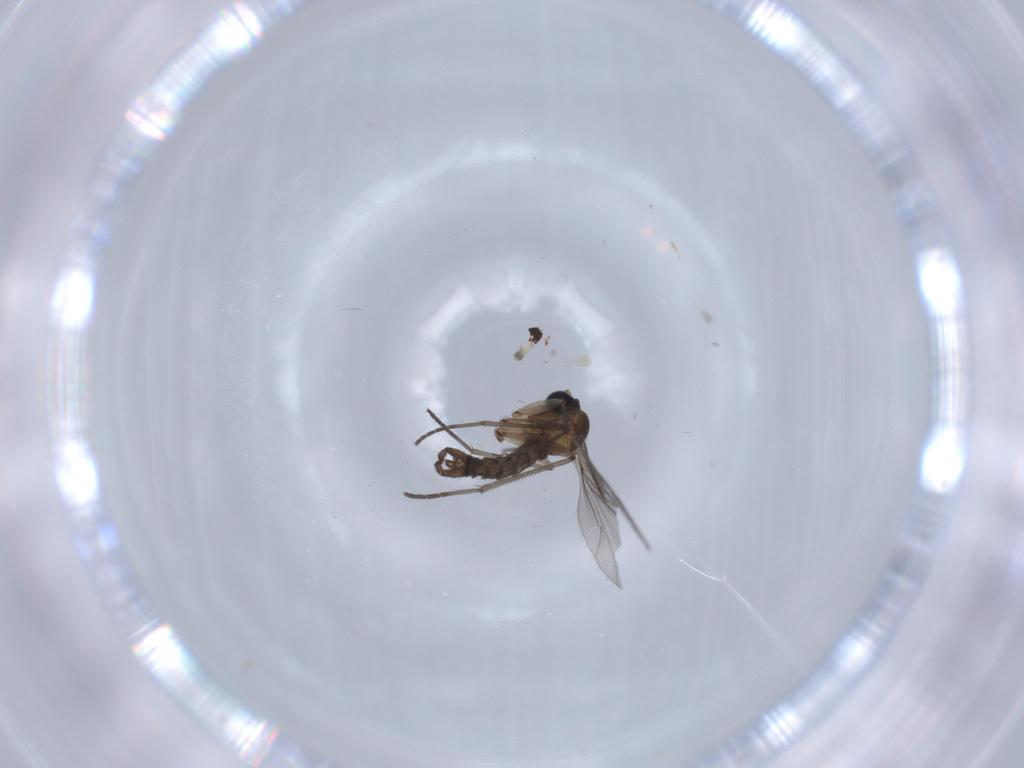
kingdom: Animalia
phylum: Arthropoda
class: Insecta
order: Diptera
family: Sciaridae
